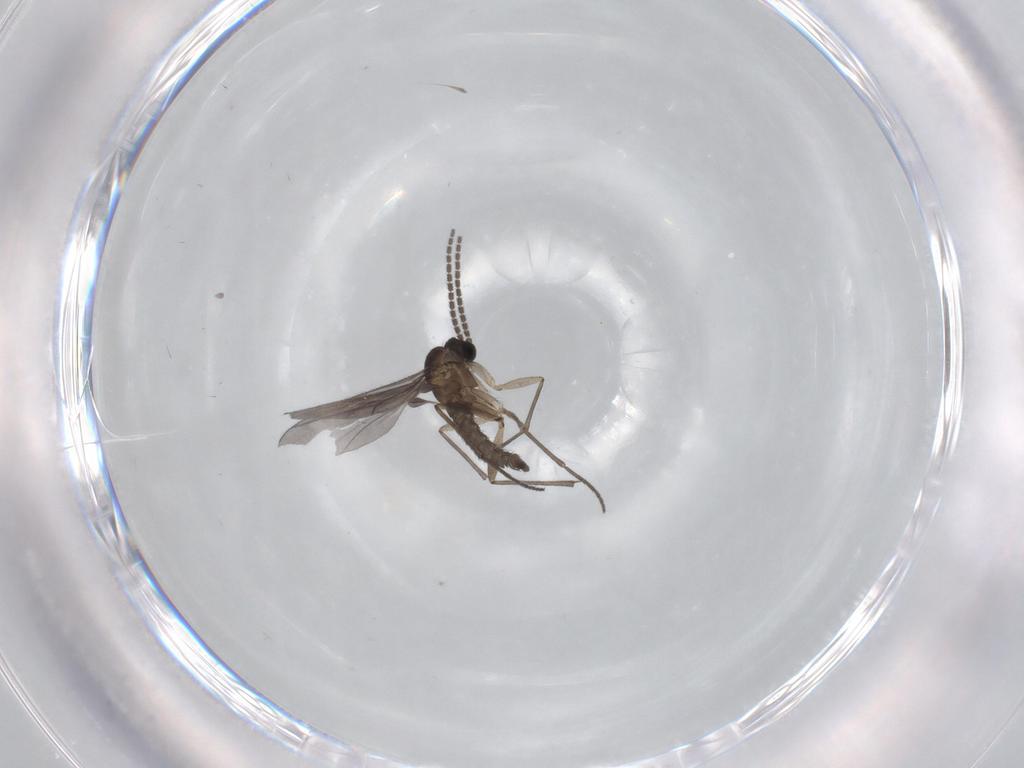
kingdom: Animalia
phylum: Arthropoda
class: Insecta
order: Diptera
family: Sciaridae
